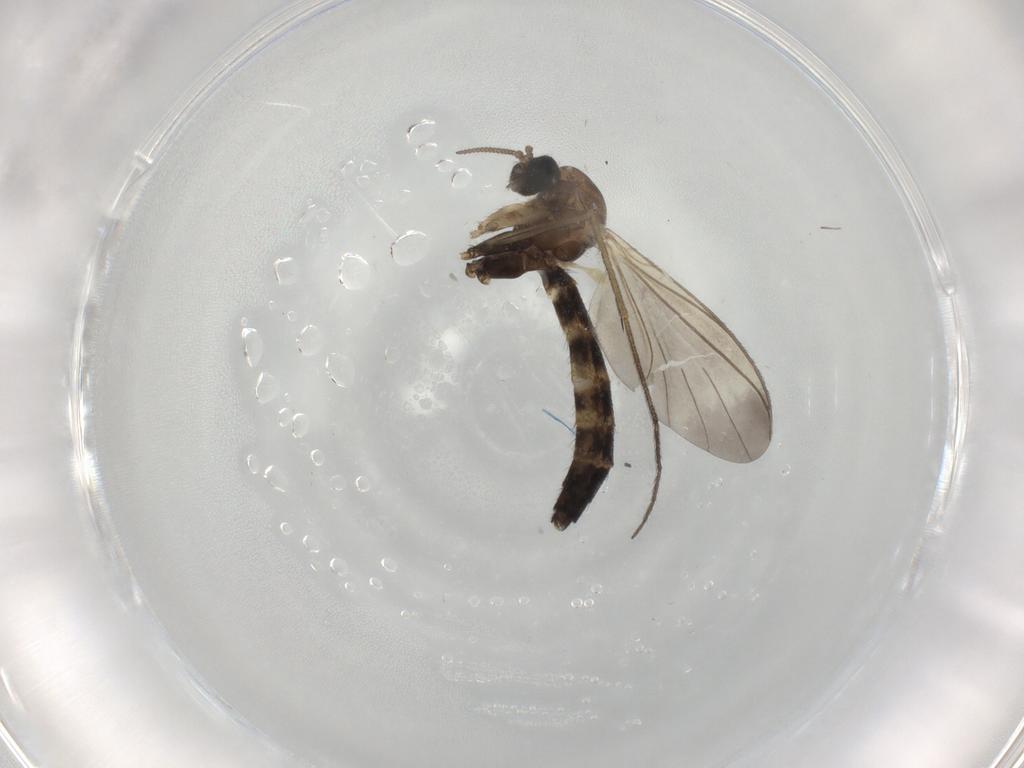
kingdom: Animalia
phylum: Arthropoda
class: Insecta
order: Diptera
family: Keroplatidae
